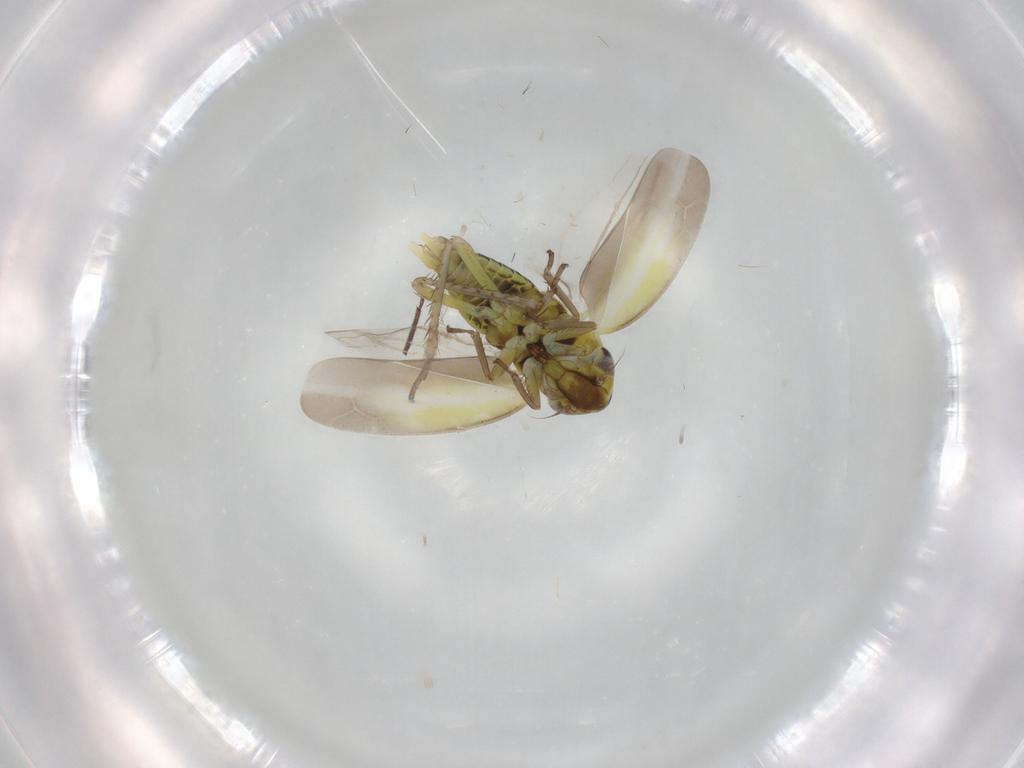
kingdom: Animalia
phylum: Arthropoda
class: Insecta
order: Hemiptera
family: Cicadellidae
